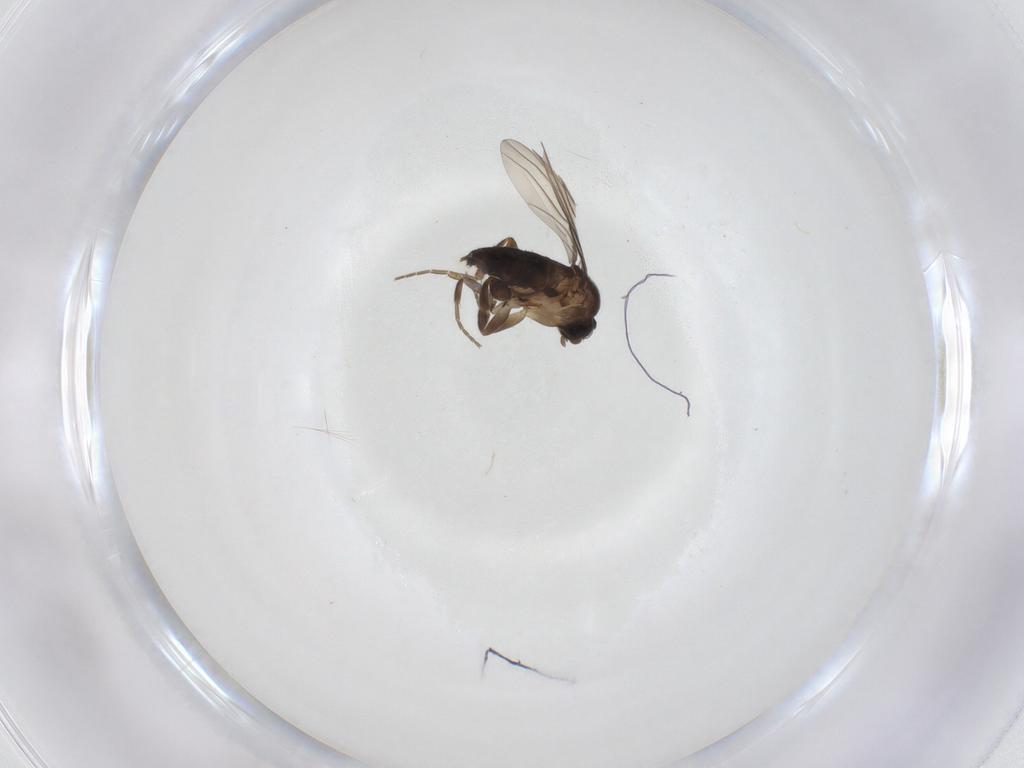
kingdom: Animalia
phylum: Arthropoda
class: Insecta
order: Diptera
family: Phoridae
